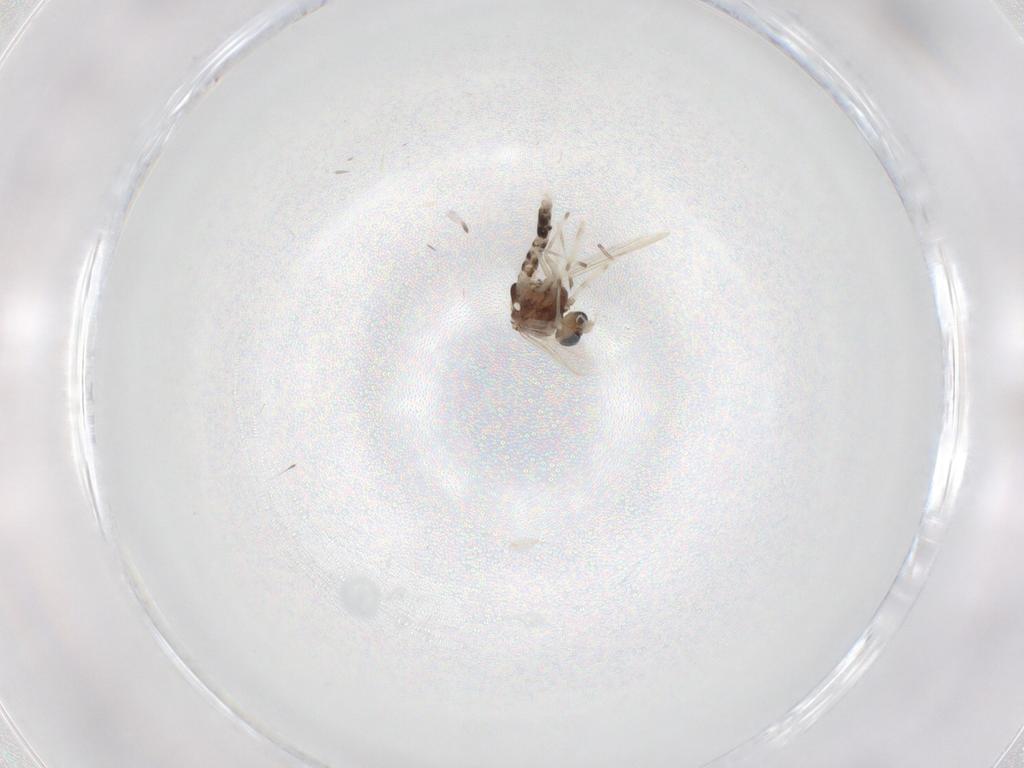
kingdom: Animalia
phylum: Arthropoda
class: Insecta
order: Diptera
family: Chironomidae
